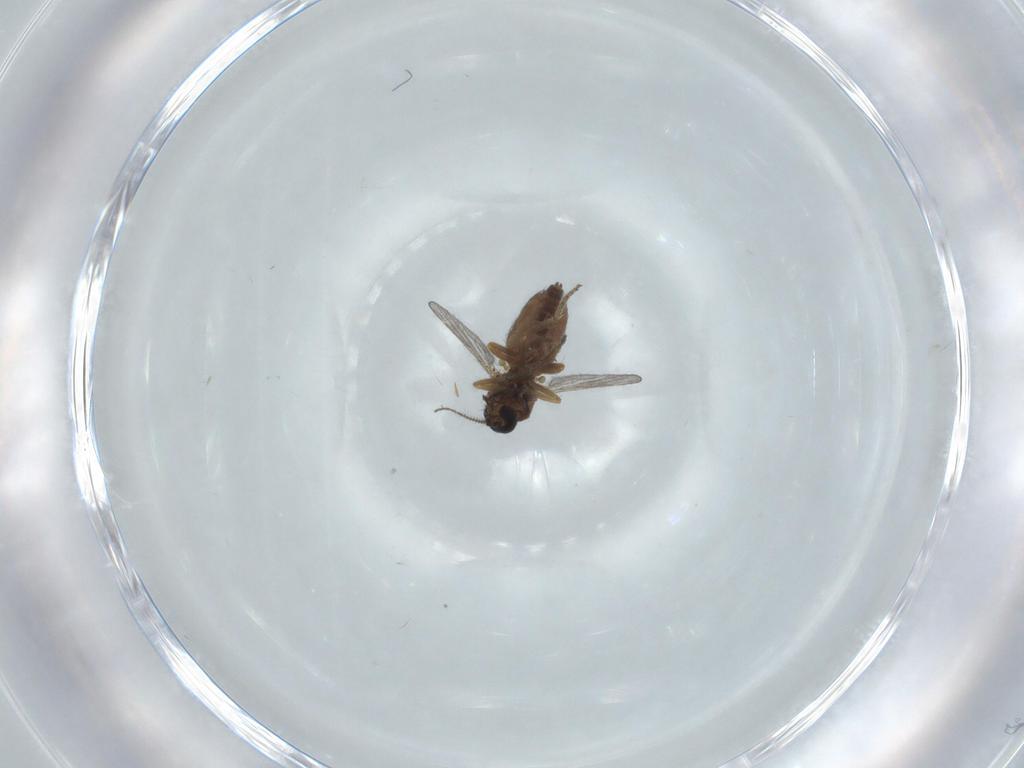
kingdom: Animalia
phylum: Arthropoda
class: Insecta
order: Diptera
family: Ceratopogonidae
